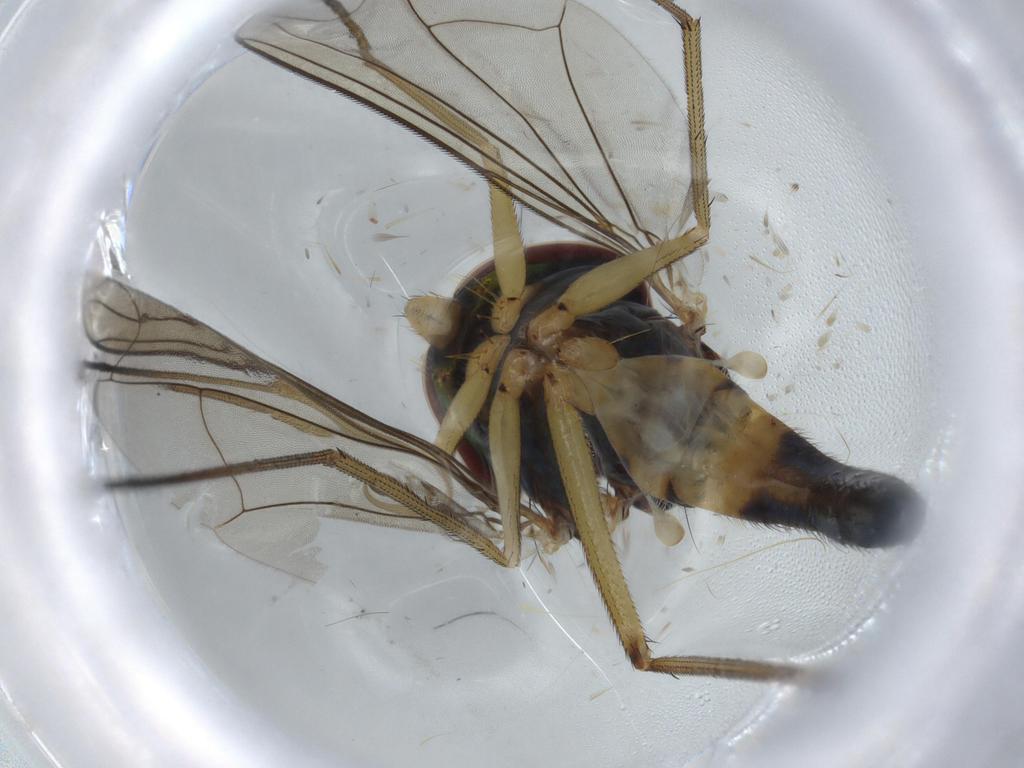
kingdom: Animalia
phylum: Arthropoda
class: Insecta
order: Diptera
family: Dolichopodidae
